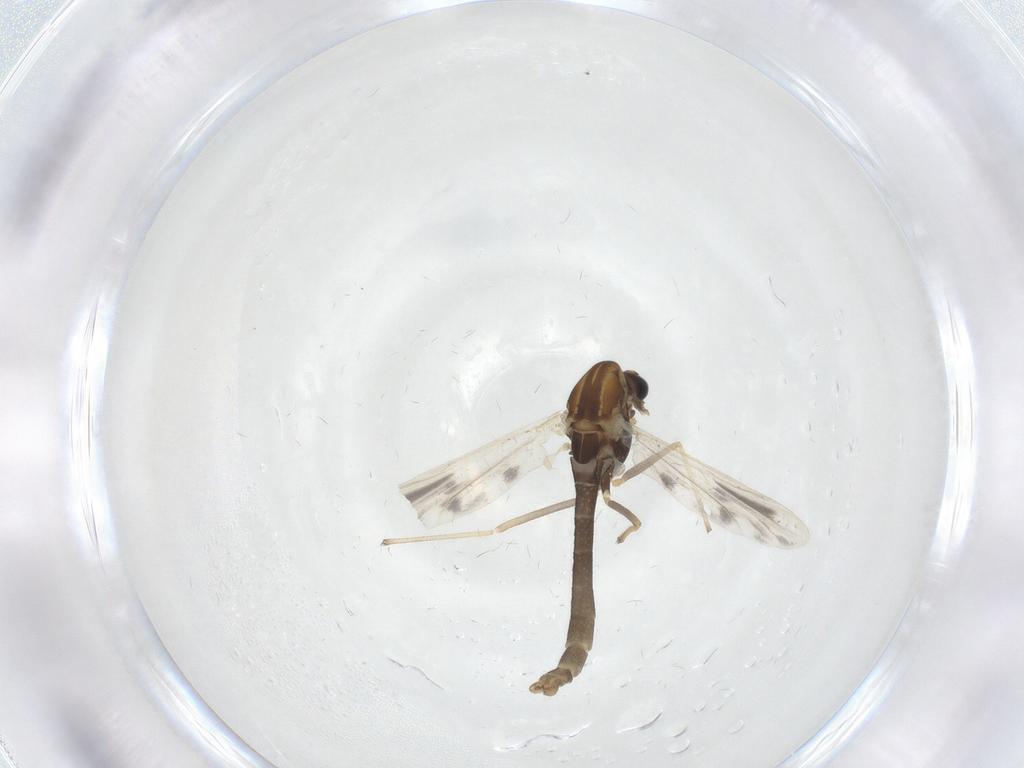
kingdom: Animalia
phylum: Arthropoda
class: Insecta
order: Diptera
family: Chironomidae
